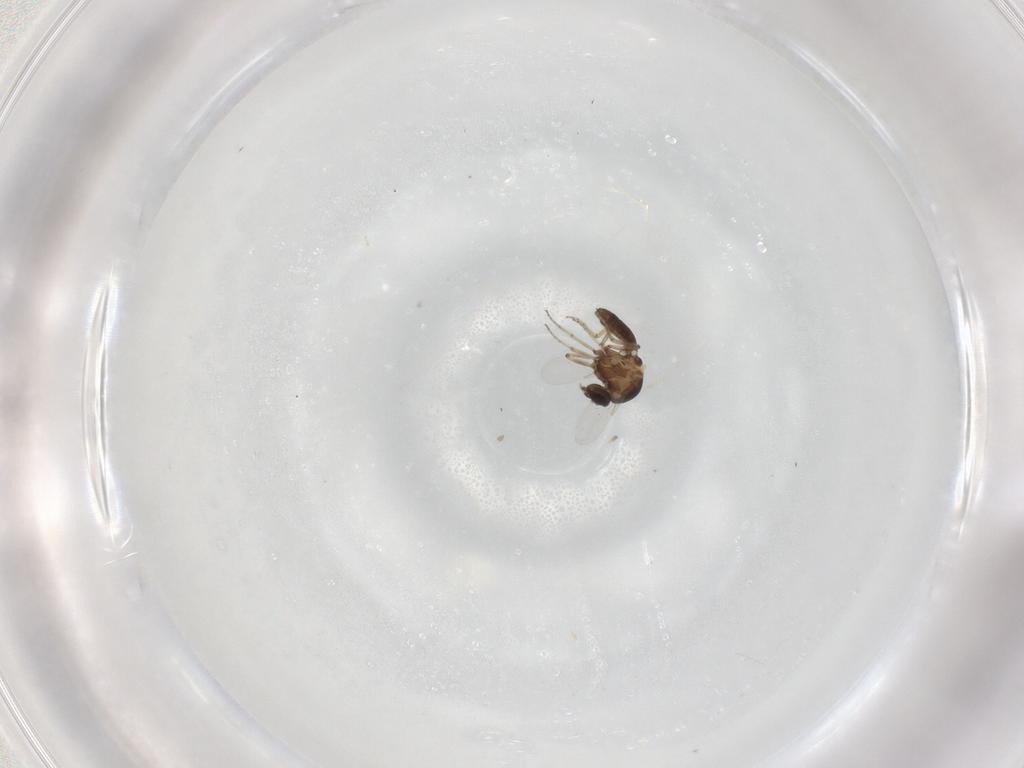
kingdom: Animalia
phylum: Arthropoda
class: Insecta
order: Diptera
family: Ceratopogonidae
